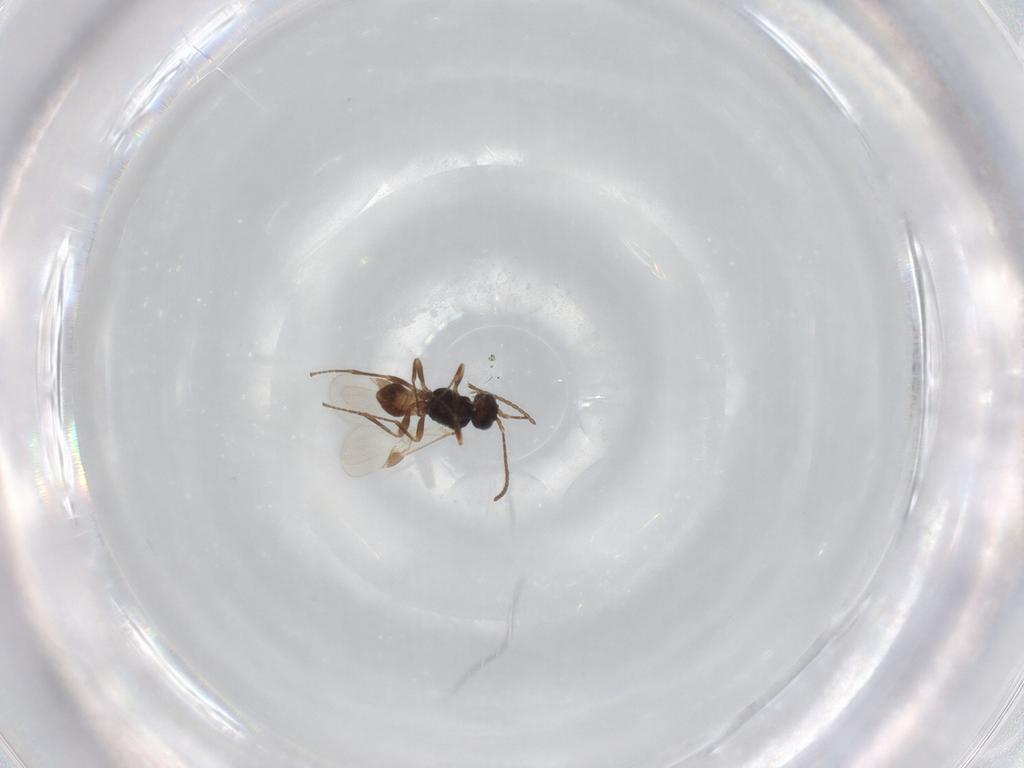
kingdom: Animalia
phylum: Arthropoda
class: Insecta
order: Hymenoptera
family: Braconidae
